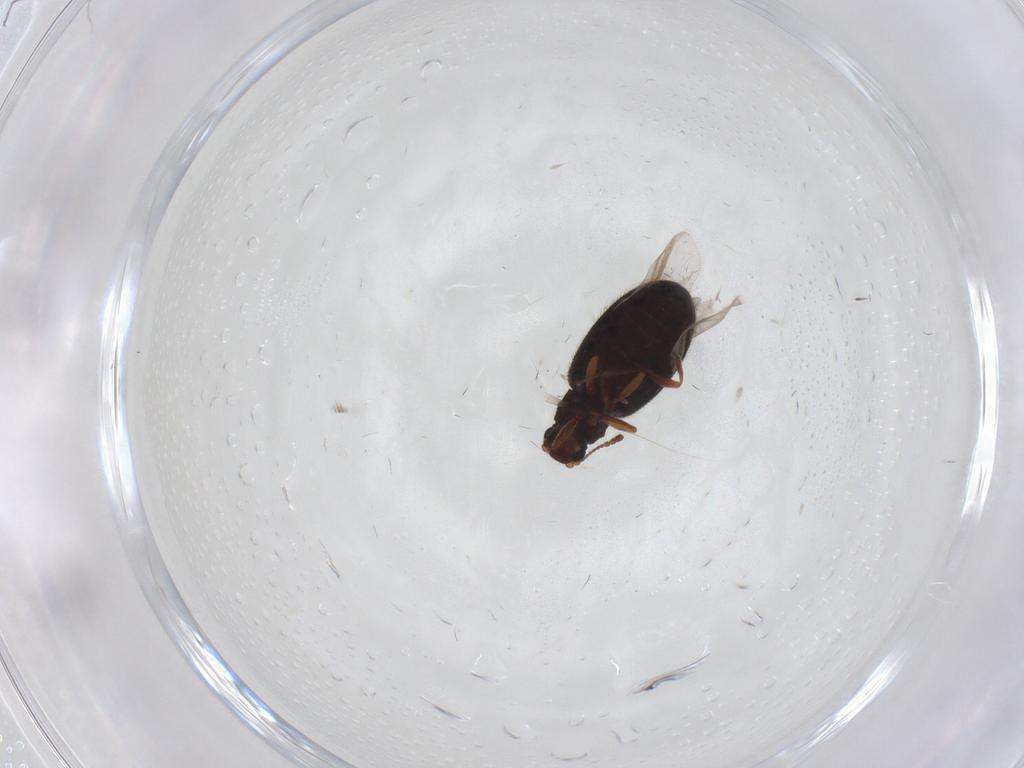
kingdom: Animalia
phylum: Arthropoda
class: Insecta
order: Coleoptera
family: Latridiidae
